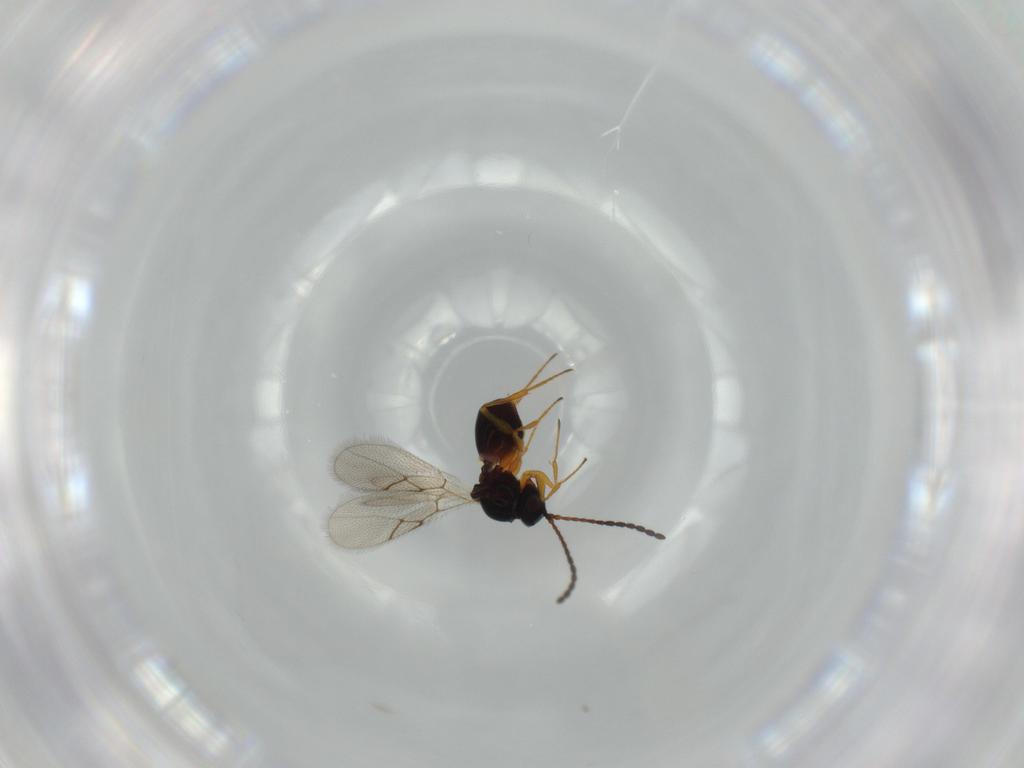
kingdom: Animalia
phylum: Arthropoda
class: Insecta
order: Hymenoptera
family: Figitidae
